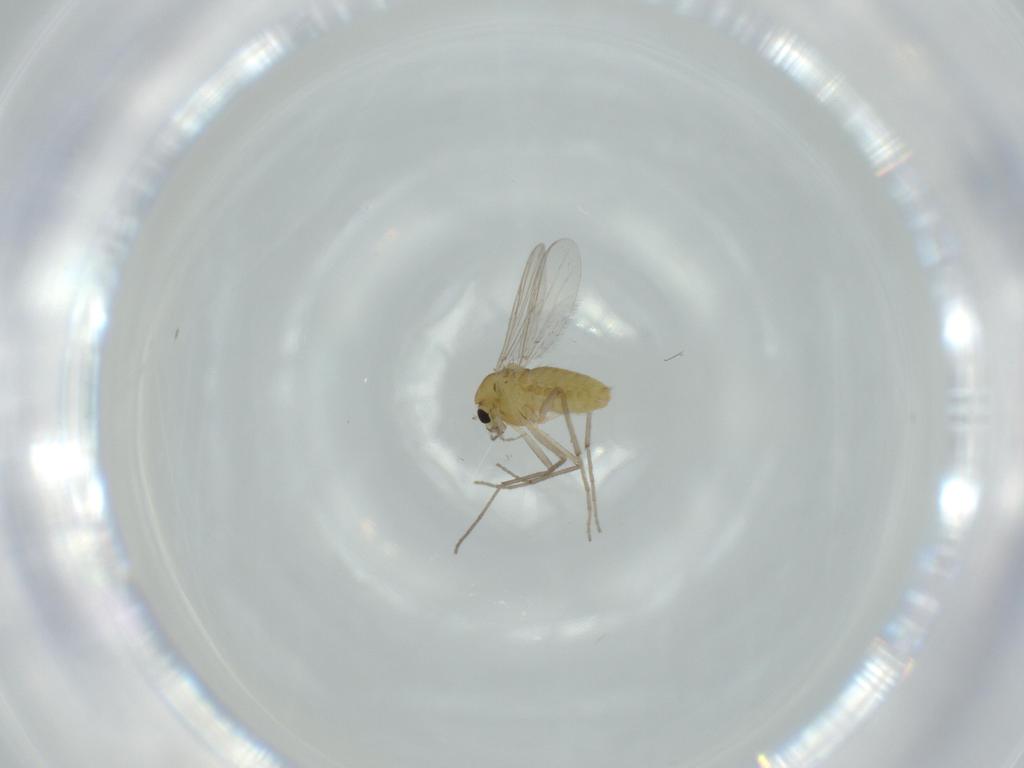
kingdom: Animalia
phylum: Arthropoda
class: Insecta
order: Diptera
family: Chironomidae
